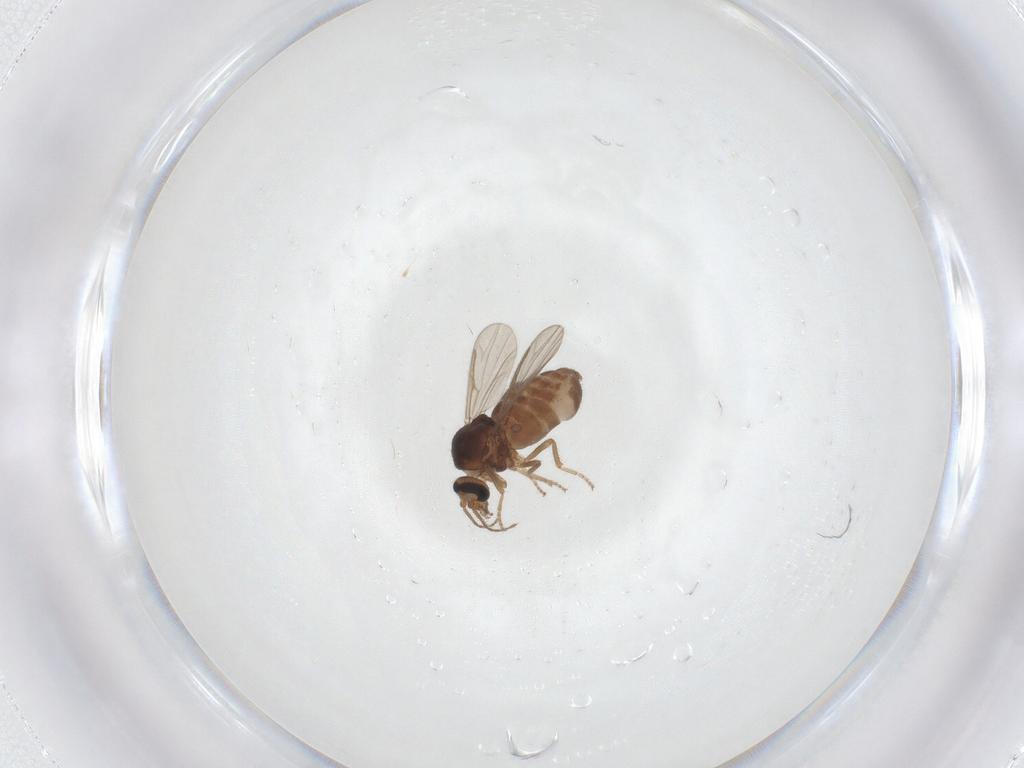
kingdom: Animalia
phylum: Arthropoda
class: Insecta
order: Diptera
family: Ceratopogonidae
